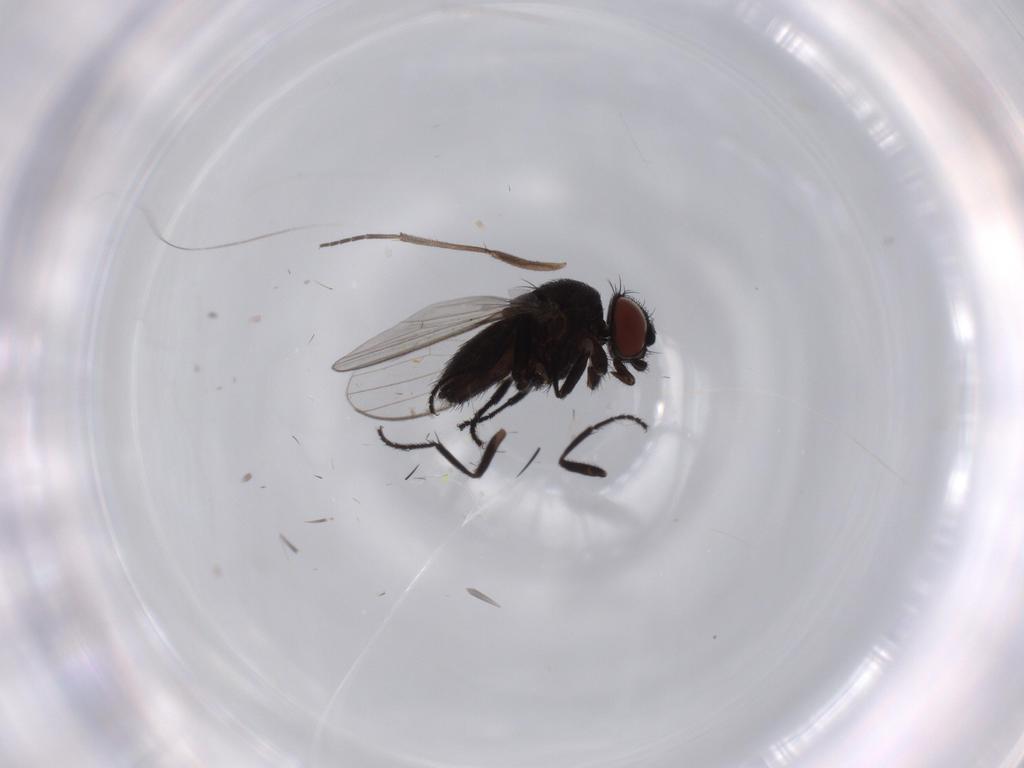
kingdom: Animalia
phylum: Arthropoda
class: Insecta
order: Diptera
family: Milichiidae
